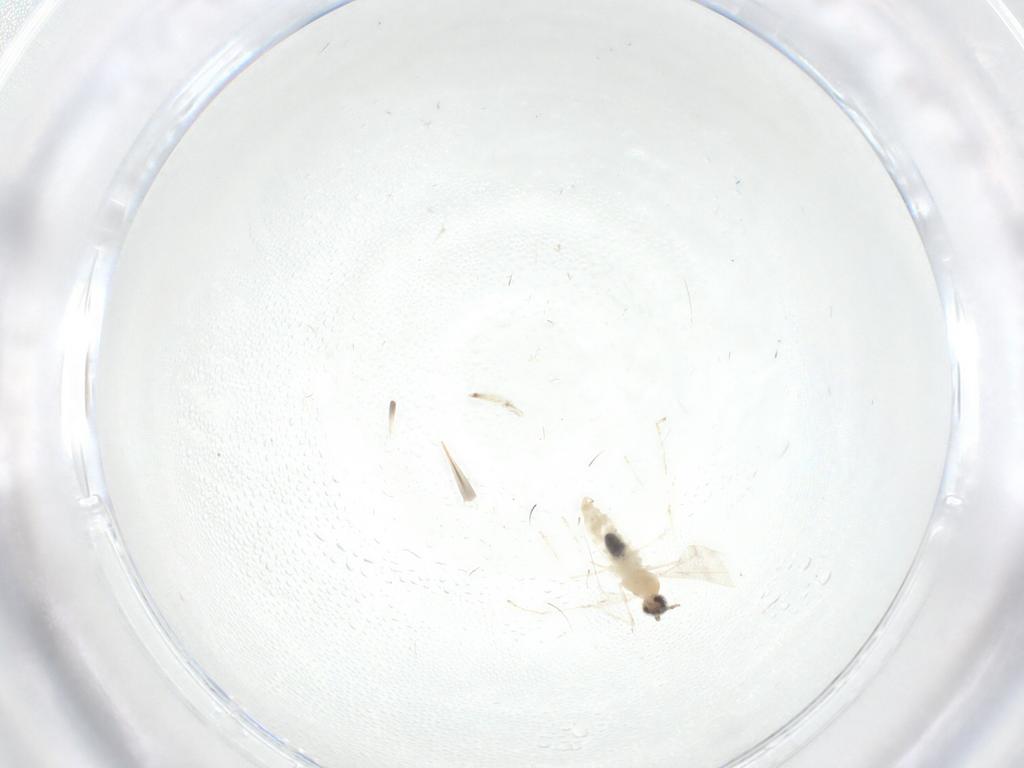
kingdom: Animalia
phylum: Arthropoda
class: Insecta
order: Diptera
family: Cecidomyiidae
